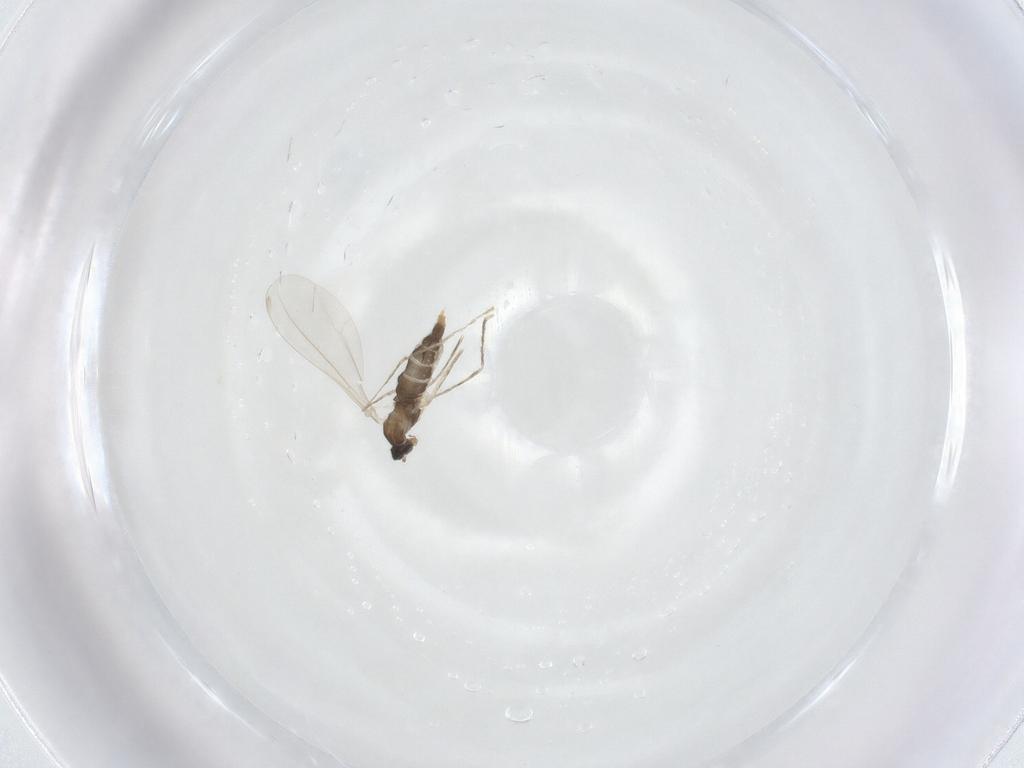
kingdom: Animalia
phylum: Arthropoda
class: Insecta
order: Diptera
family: Cecidomyiidae
